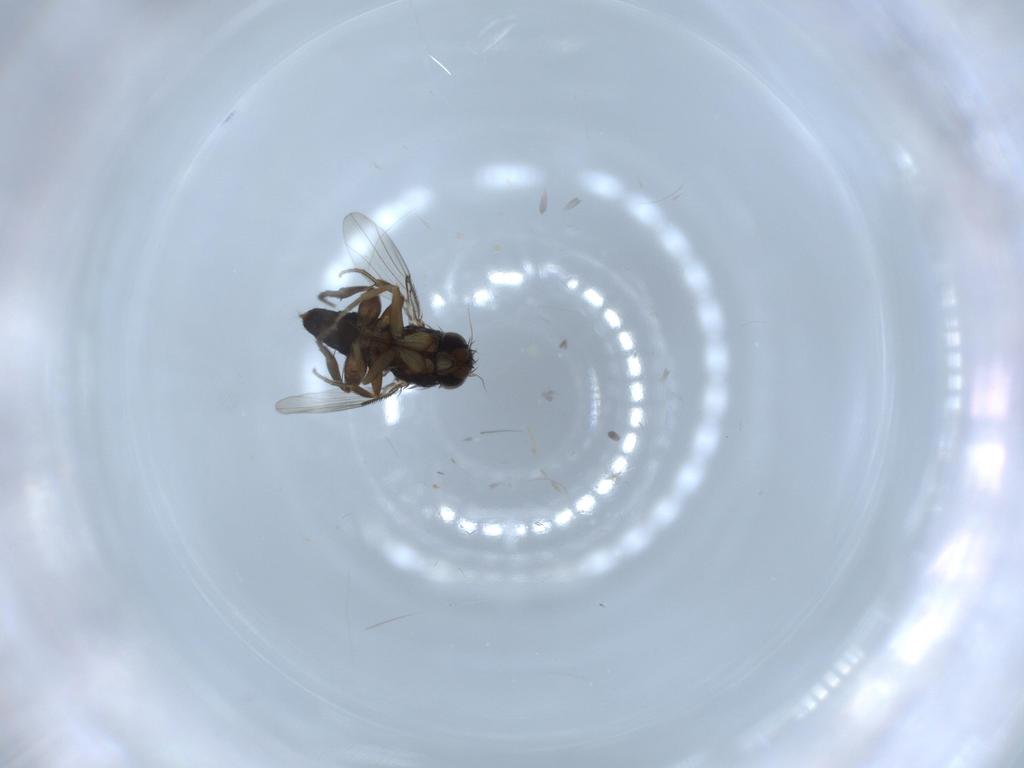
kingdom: Animalia
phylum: Arthropoda
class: Insecta
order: Diptera
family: Phoridae
